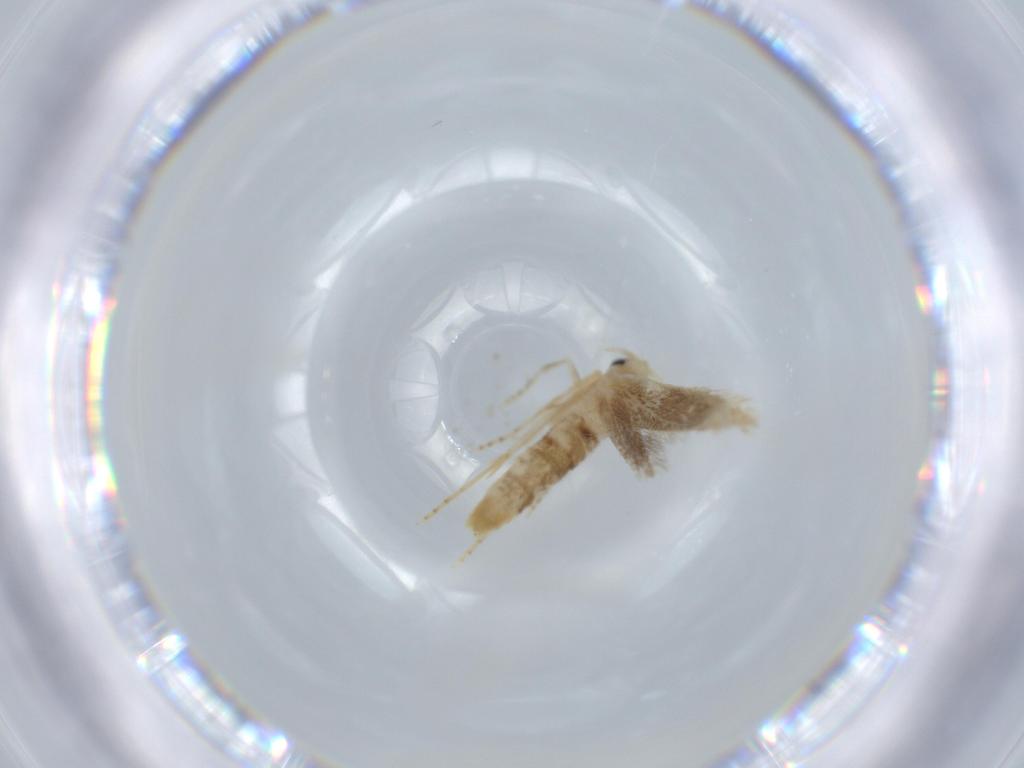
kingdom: Animalia
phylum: Arthropoda
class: Insecta
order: Lepidoptera
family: Bucculatricidae
